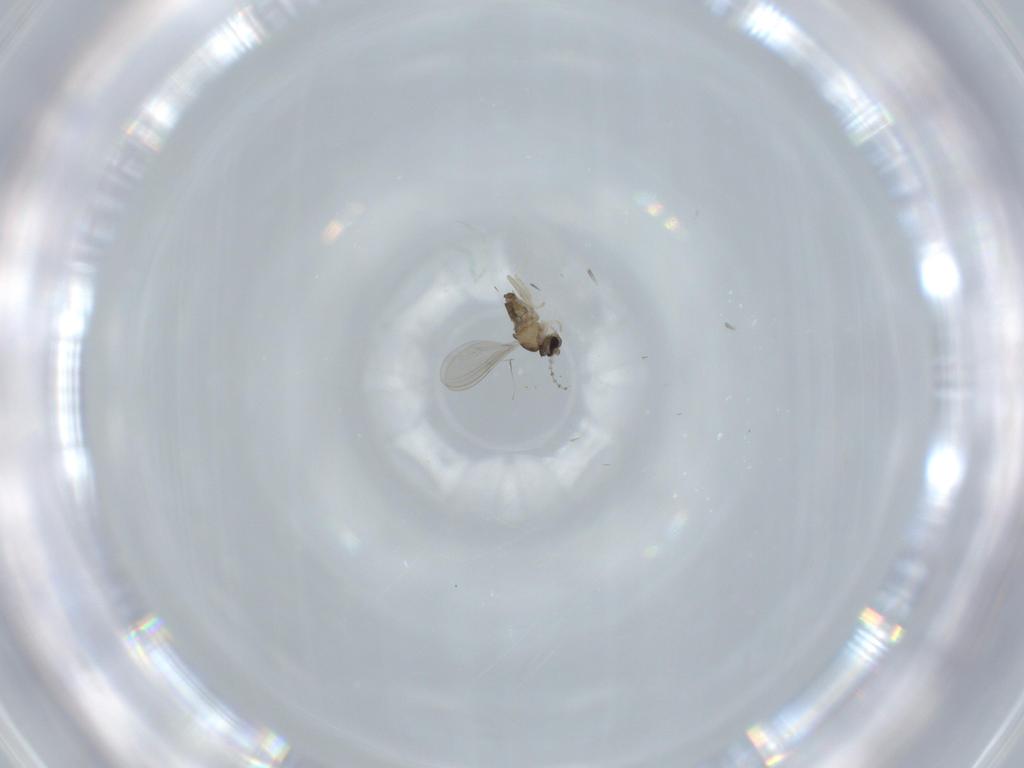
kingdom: Animalia
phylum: Arthropoda
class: Insecta
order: Diptera
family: Cecidomyiidae
